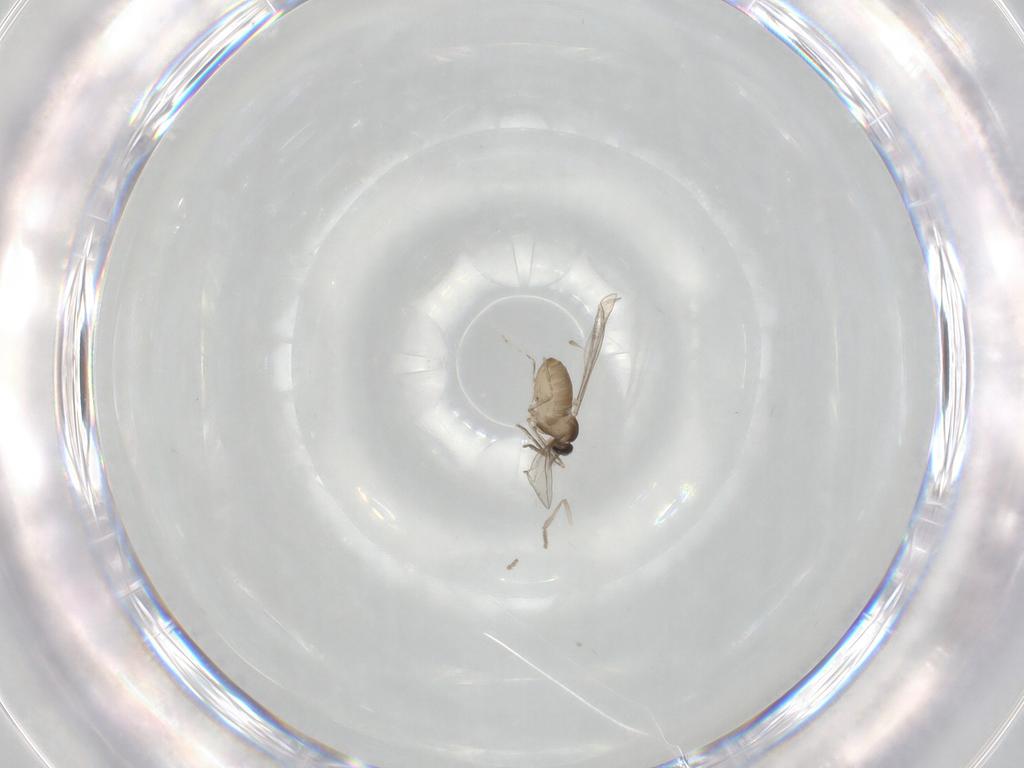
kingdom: Animalia
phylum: Arthropoda
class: Insecta
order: Diptera
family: Cecidomyiidae
